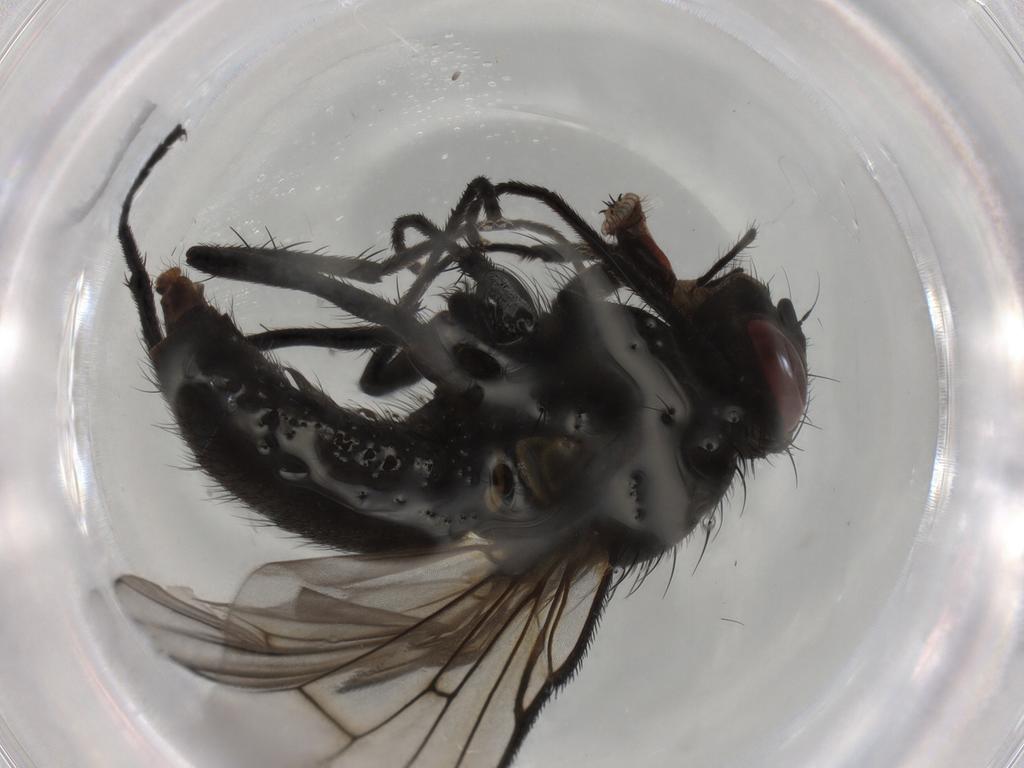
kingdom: Animalia
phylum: Arthropoda
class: Insecta
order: Diptera
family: Muscidae
